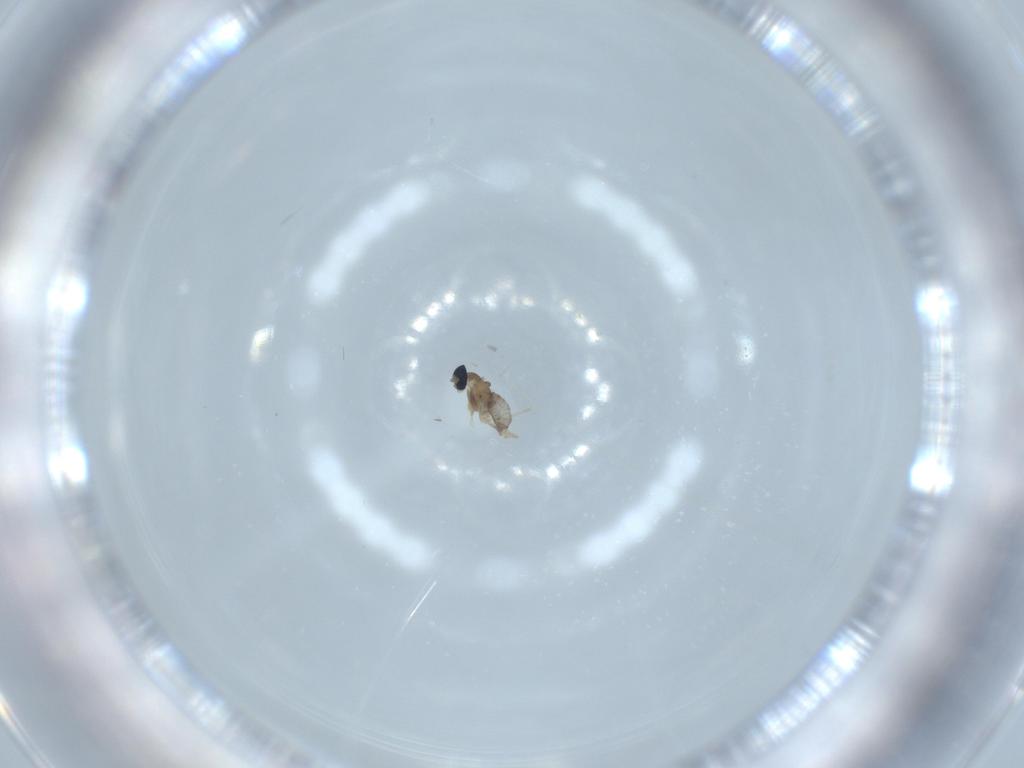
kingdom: Animalia
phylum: Arthropoda
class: Insecta
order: Diptera
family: Cecidomyiidae
